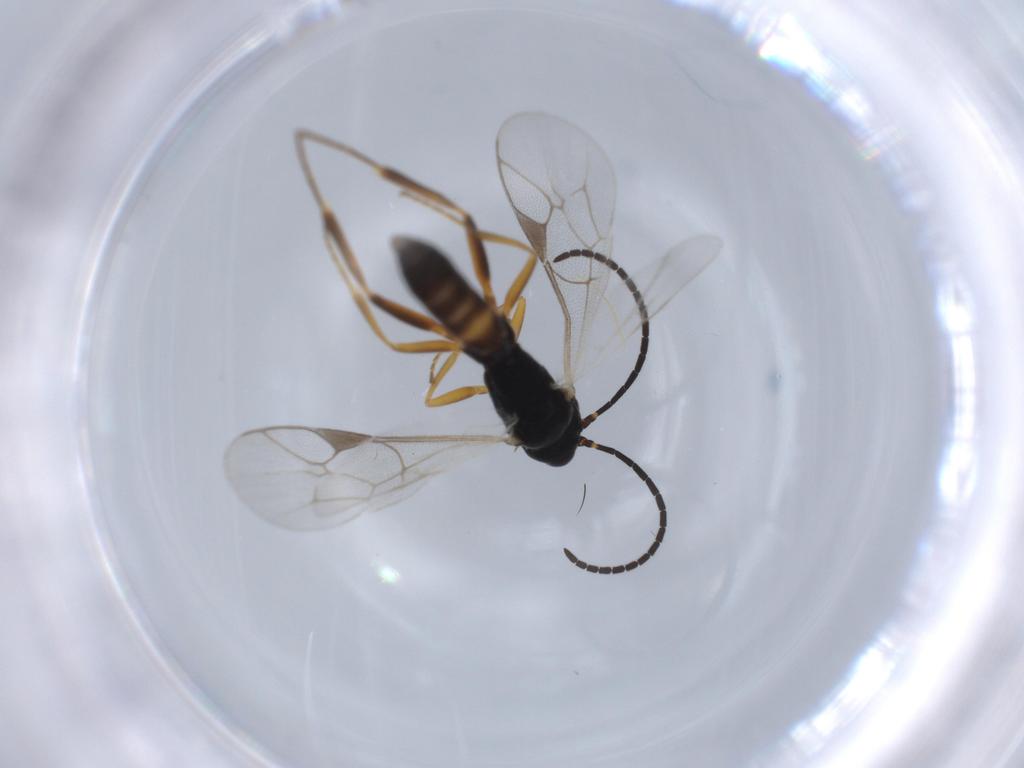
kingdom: Animalia
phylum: Arthropoda
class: Insecta
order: Hymenoptera
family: Ichneumonidae
